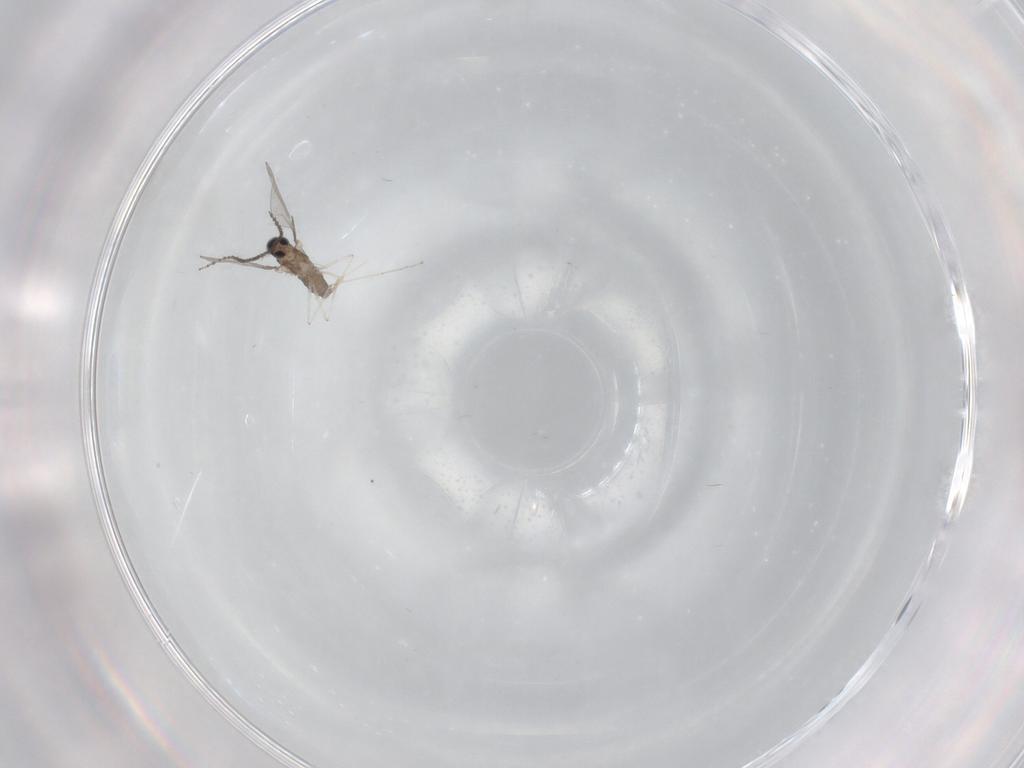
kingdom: Animalia
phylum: Arthropoda
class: Insecta
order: Diptera
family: Cecidomyiidae
